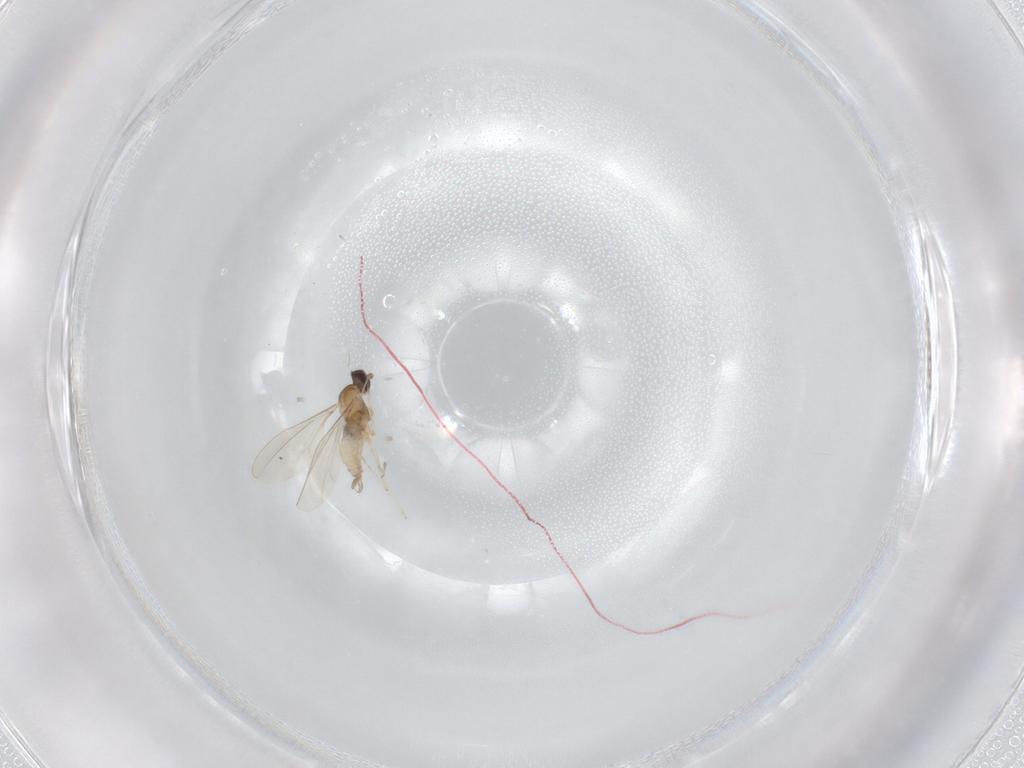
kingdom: Animalia
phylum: Arthropoda
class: Insecta
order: Diptera
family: Cecidomyiidae
